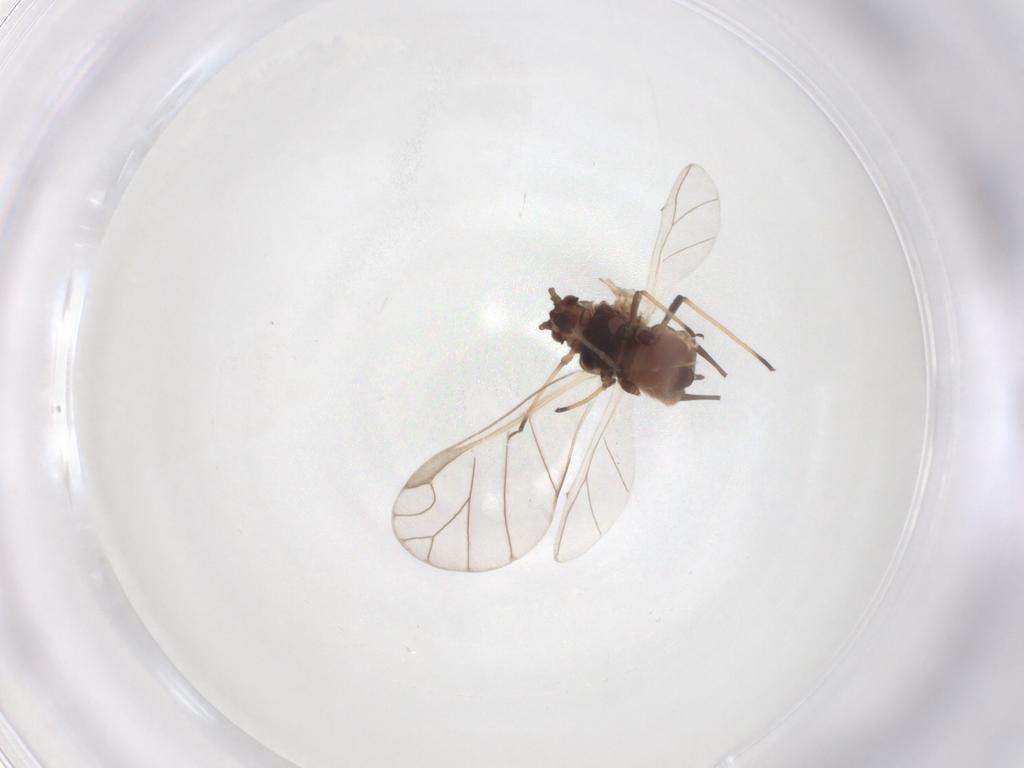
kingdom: Animalia
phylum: Arthropoda
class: Insecta
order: Hemiptera
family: Aphididae
